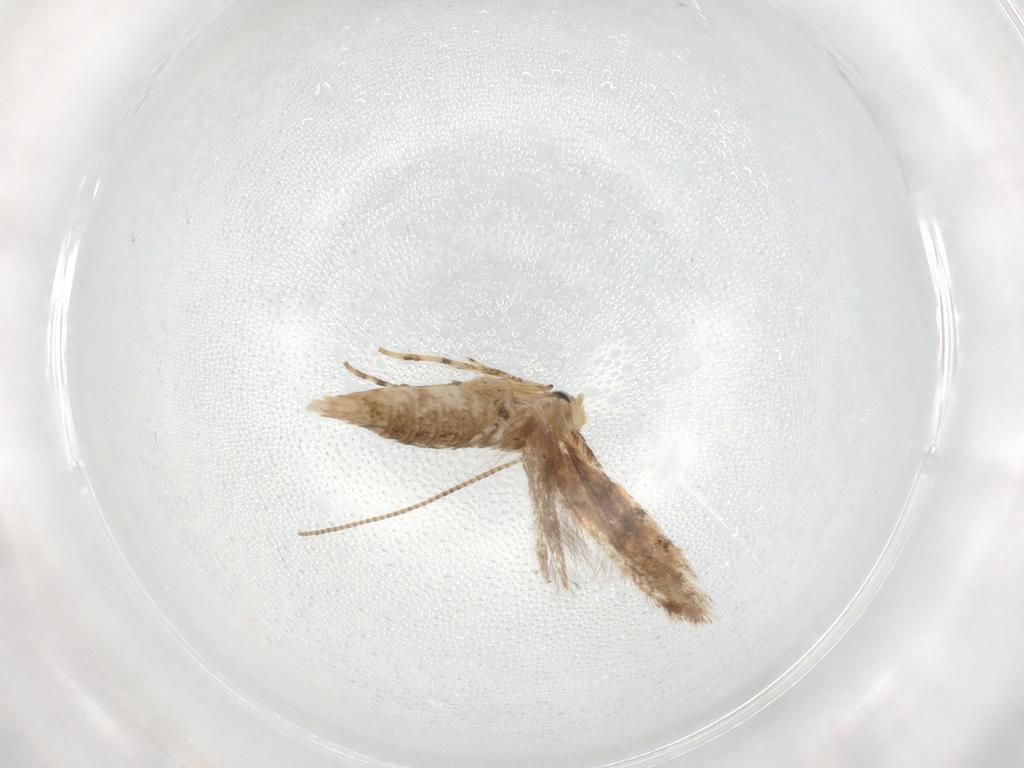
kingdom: Animalia
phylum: Arthropoda
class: Insecta
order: Lepidoptera
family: Gracillariidae
